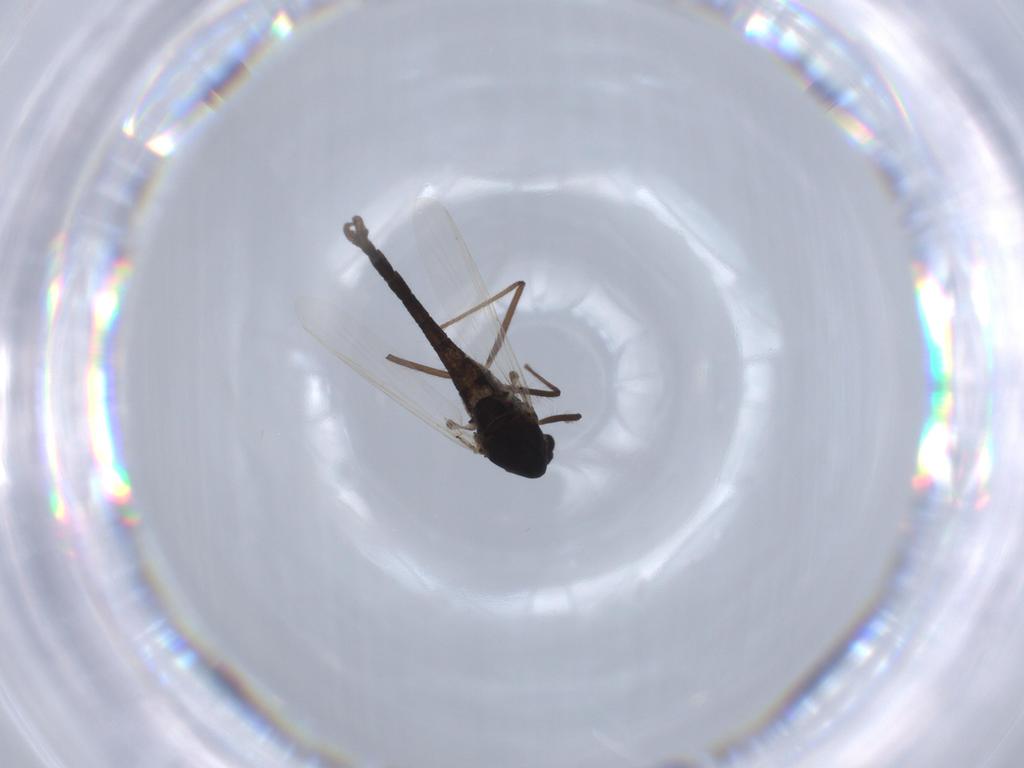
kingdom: Animalia
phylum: Arthropoda
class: Insecta
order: Diptera
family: Chironomidae
